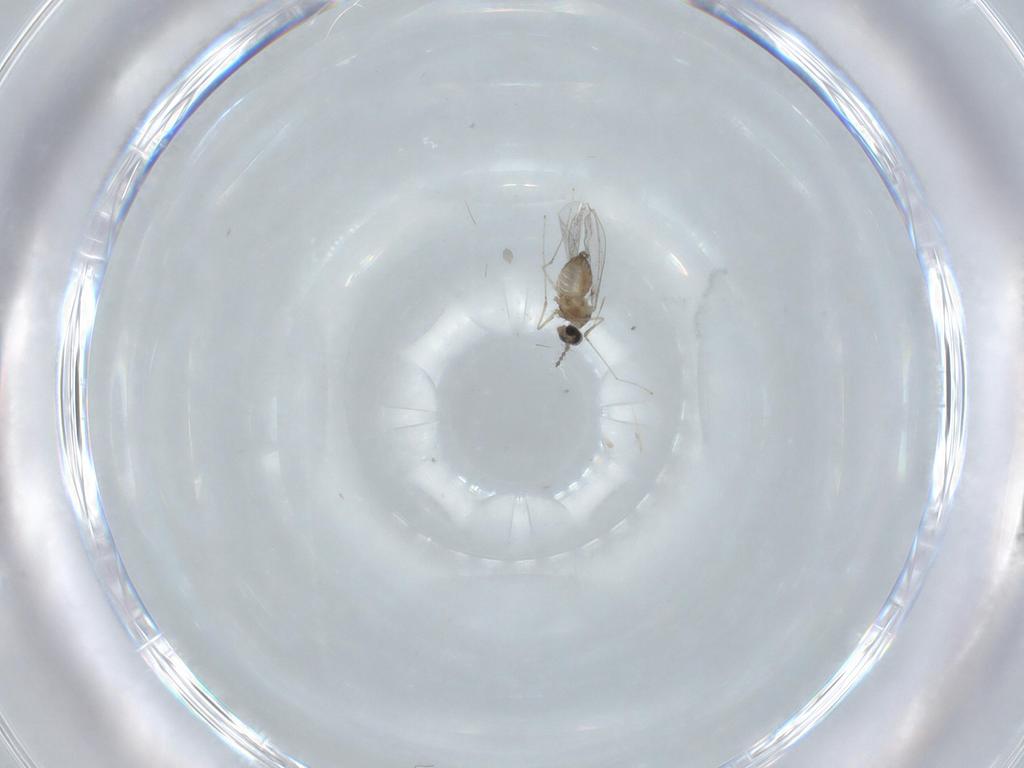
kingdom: Animalia
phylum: Arthropoda
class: Insecta
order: Diptera
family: Cecidomyiidae
